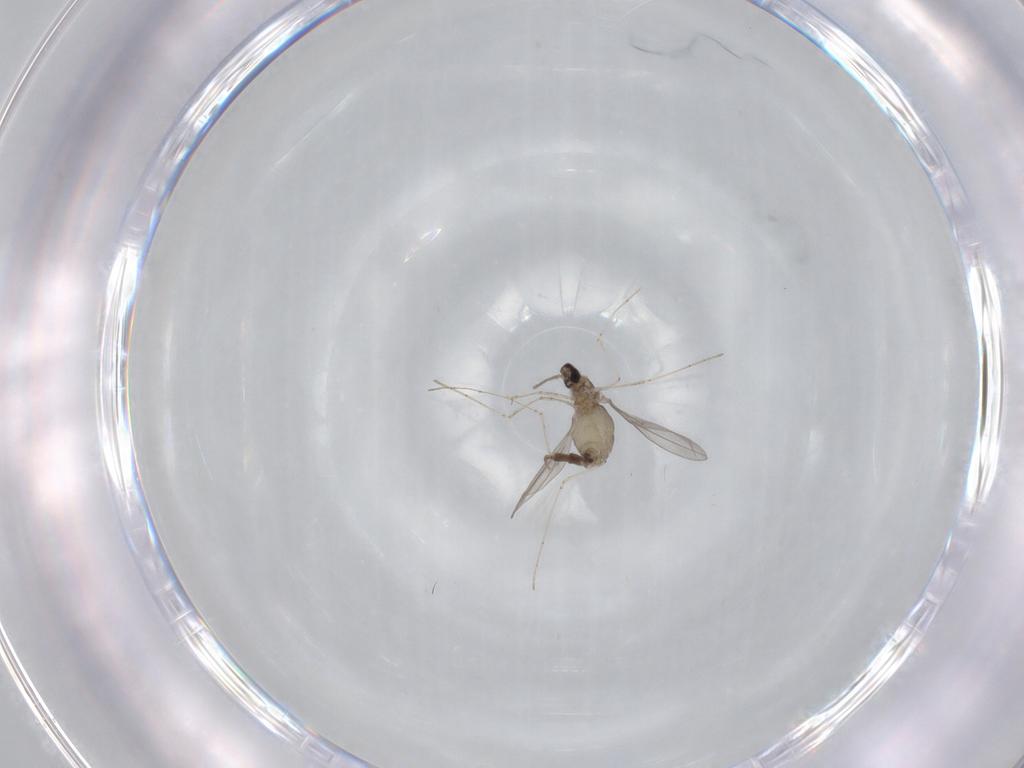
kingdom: Animalia
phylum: Arthropoda
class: Insecta
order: Diptera
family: Cecidomyiidae
